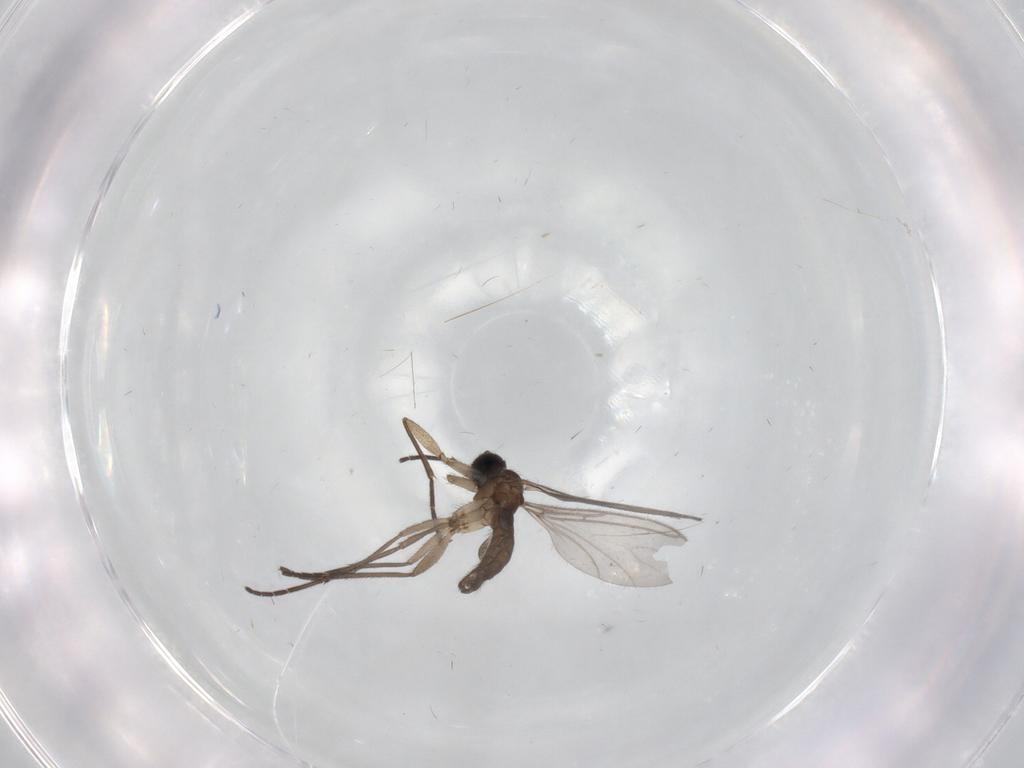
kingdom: Animalia
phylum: Arthropoda
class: Insecta
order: Diptera
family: Sciaridae
